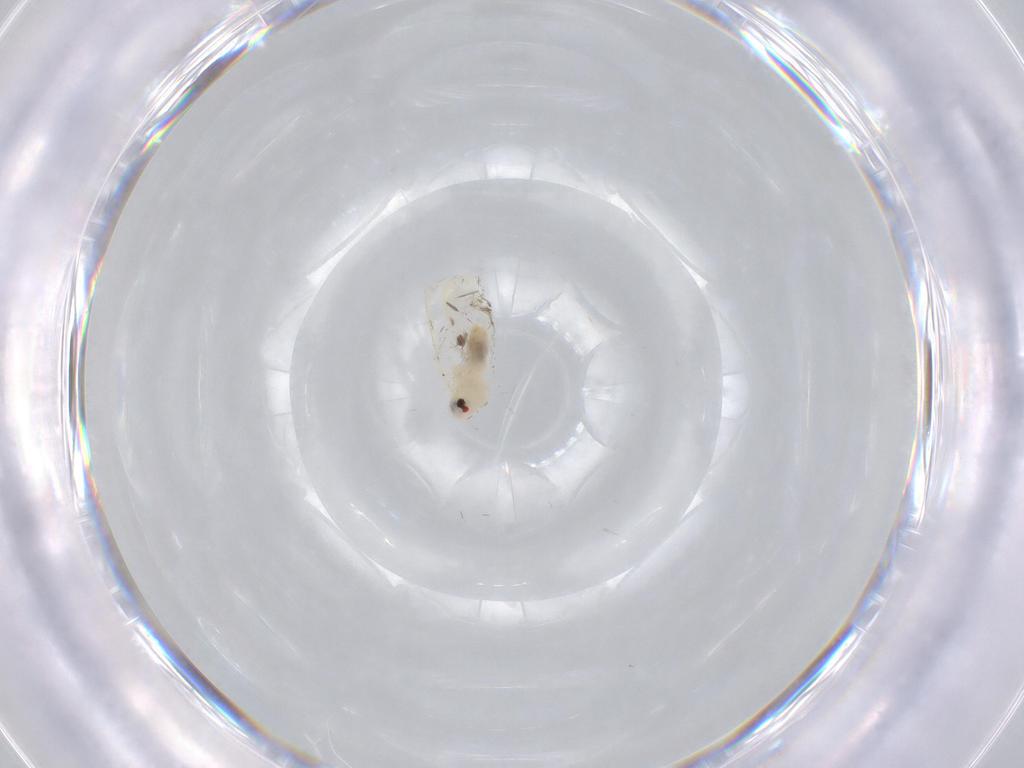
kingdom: Animalia
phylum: Arthropoda
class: Insecta
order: Hemiptera
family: Aleyrodidae
